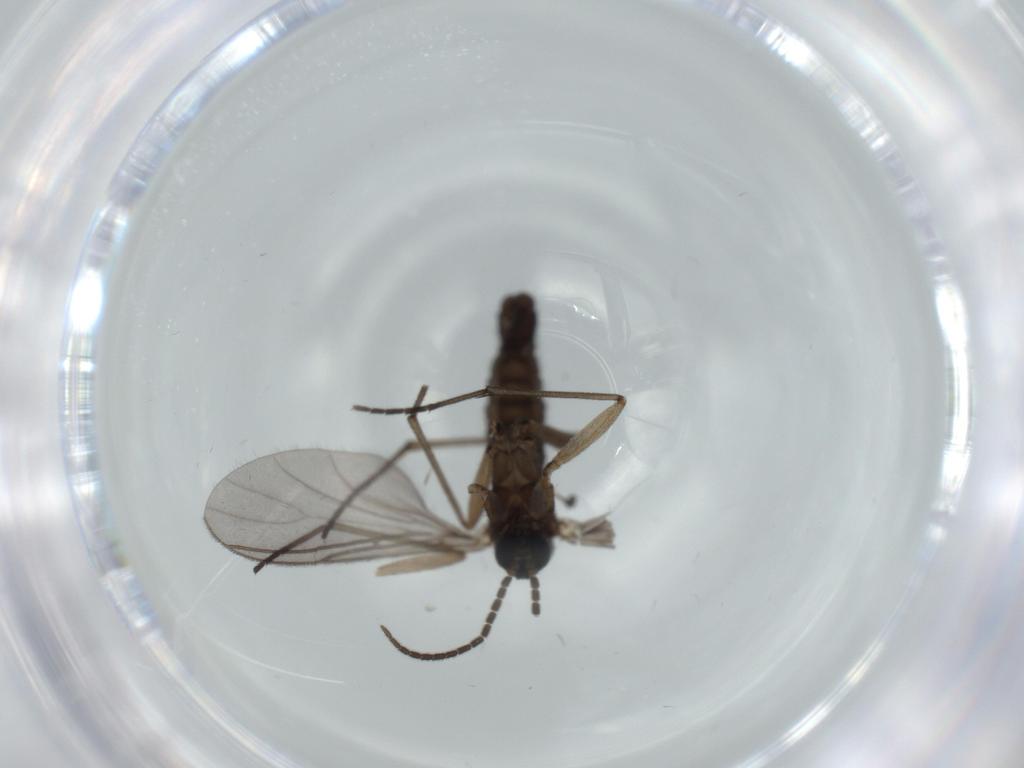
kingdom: Animalia
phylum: Arthropoda
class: Insecta
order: Diptera
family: Sciaridae
